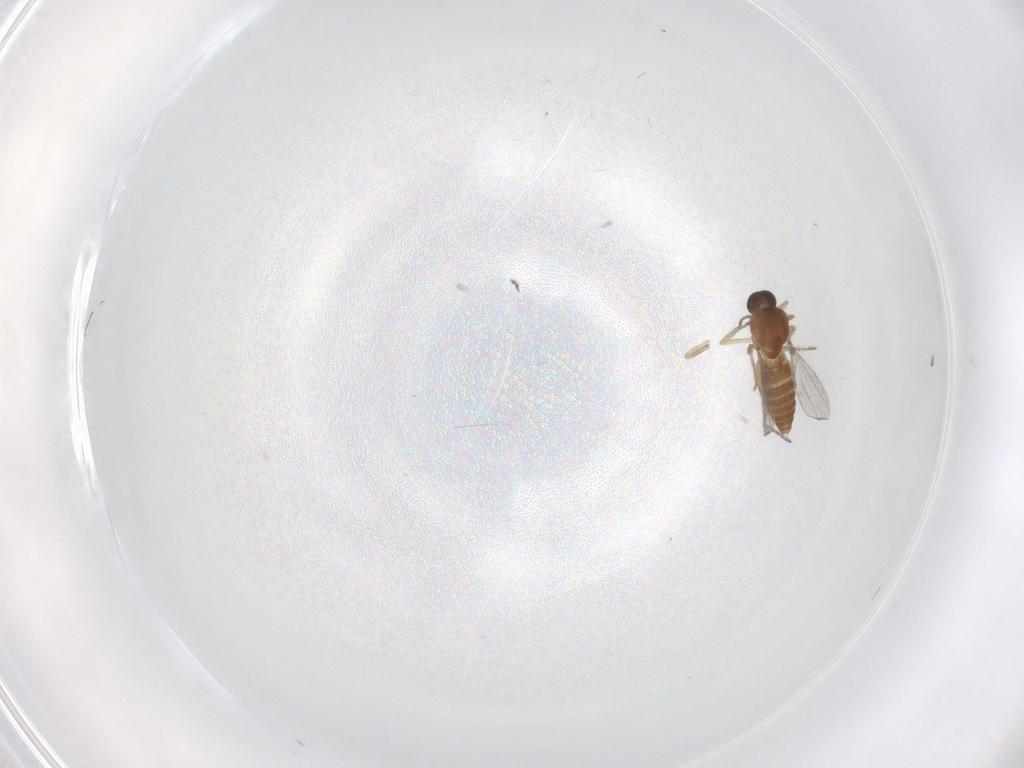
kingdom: Animalia
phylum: Arthropoda
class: Insecta
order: Diptera
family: Ceratopogonidae
